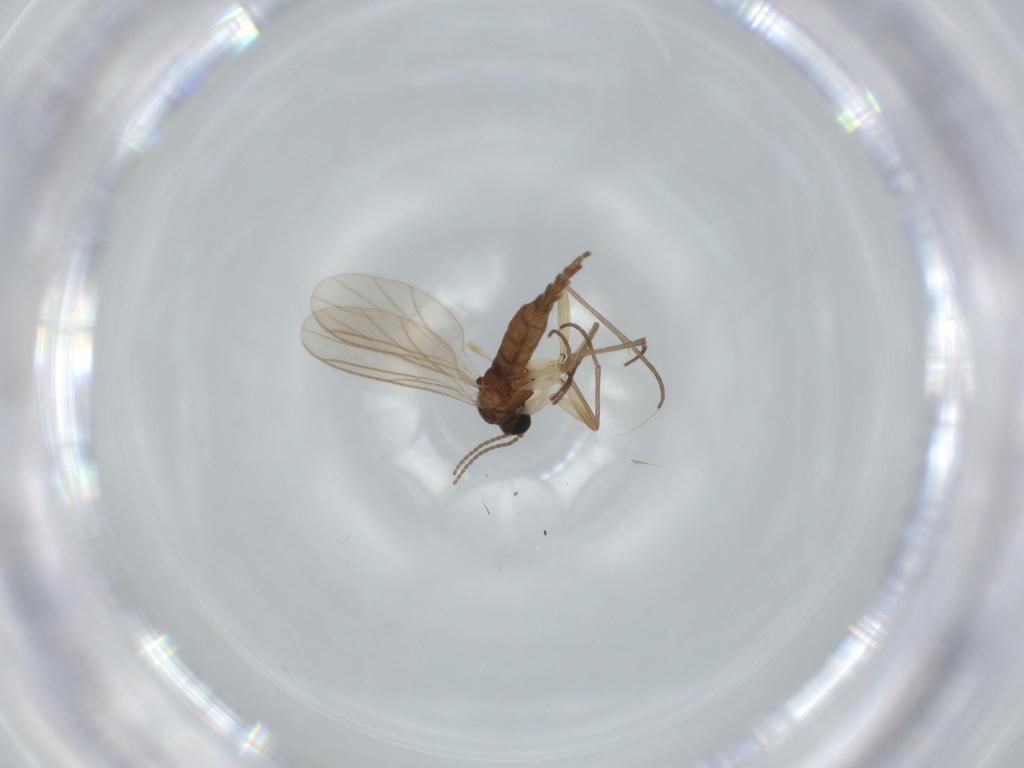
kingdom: Animalia
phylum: Arthropoda
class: Insecta
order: Diptera
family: Sciaridae
